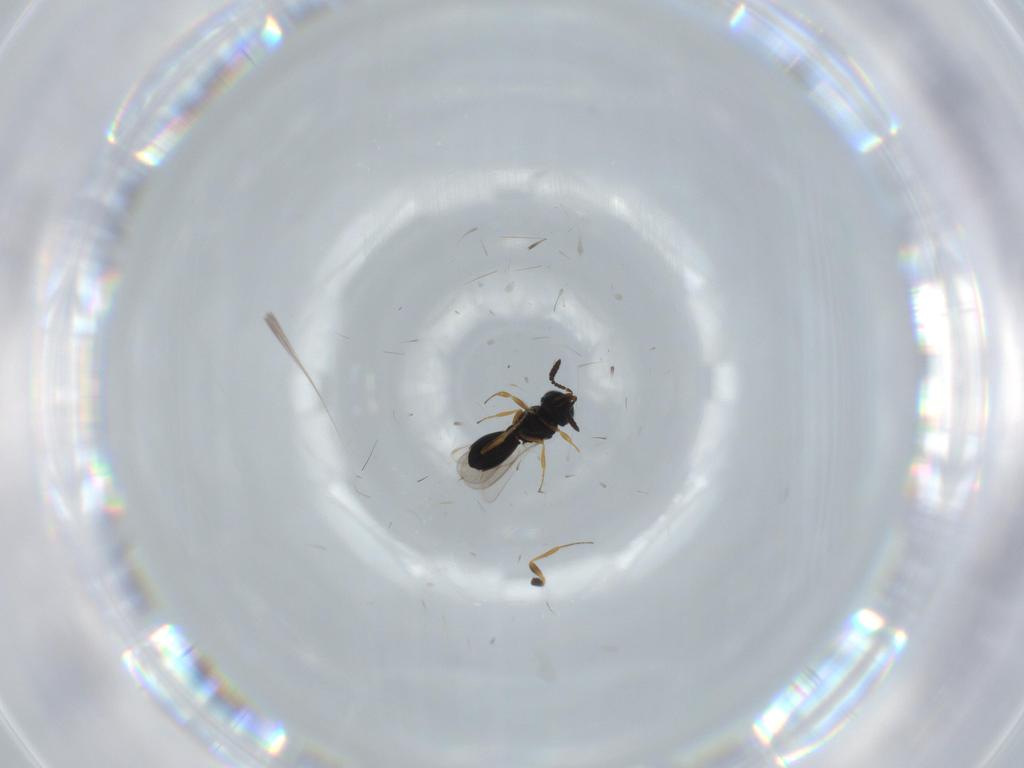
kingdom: Animalia
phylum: Arthropoda
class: Insecta
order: Hymenoptera
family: Scelionidae
